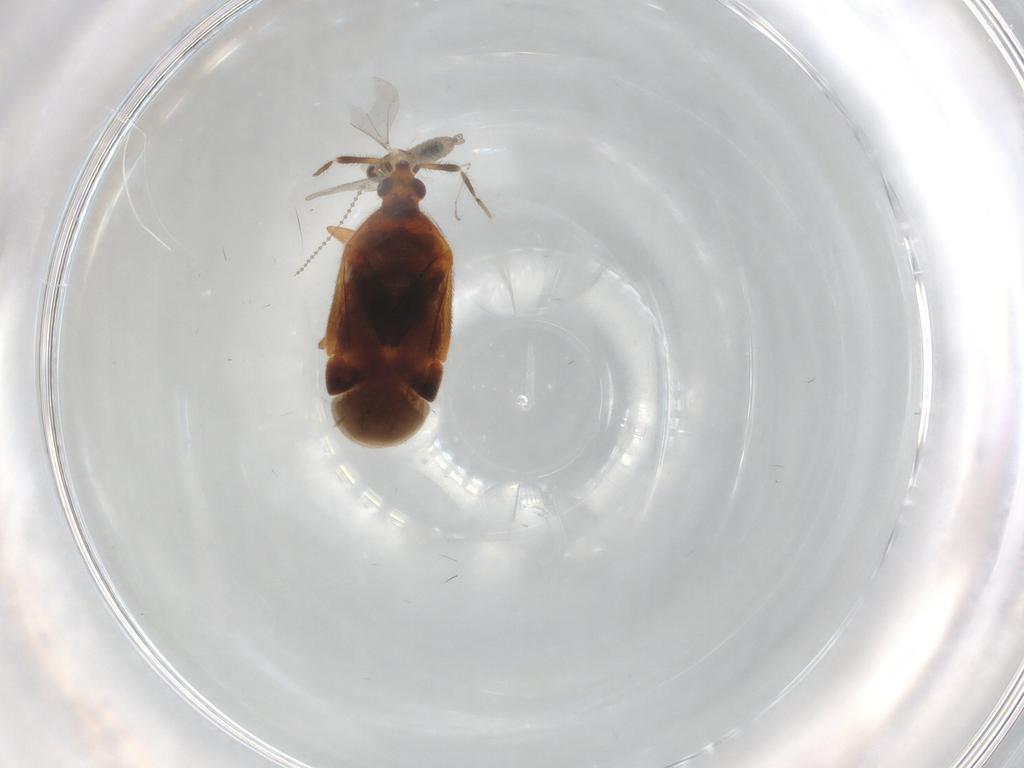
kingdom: Animalia
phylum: Arthropoda
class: Insecta
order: Hemiptera
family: Anthocoridae
